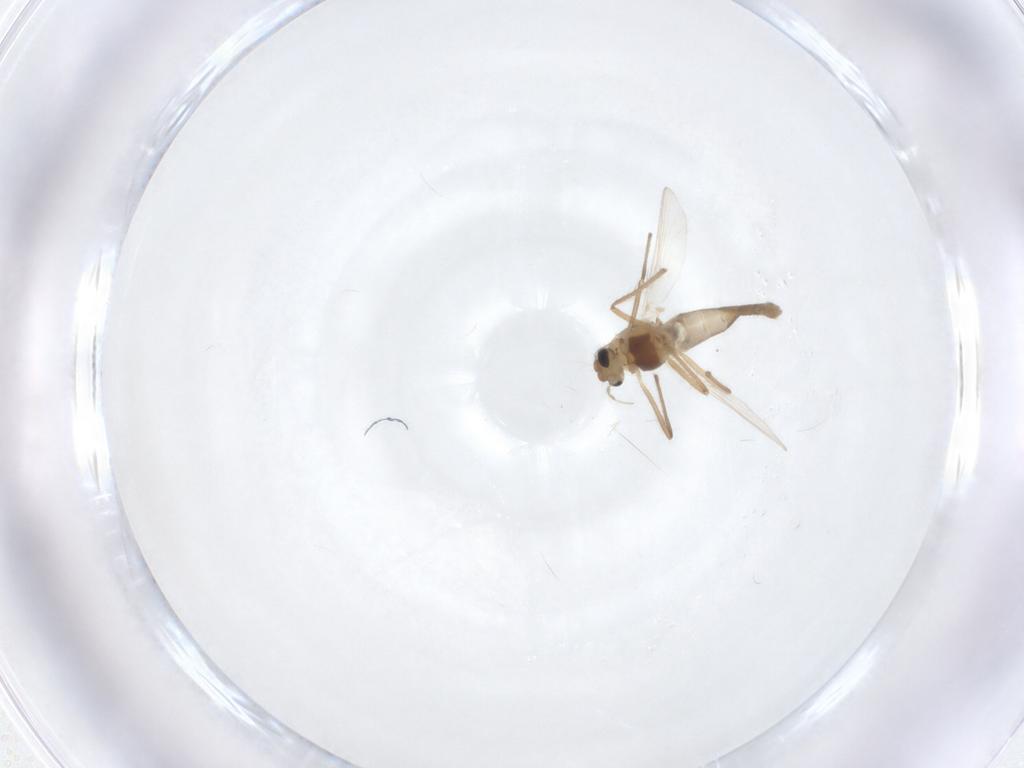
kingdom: Animalia
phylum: Arthropoda
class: Insecta
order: Diptera
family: Chironomidae
